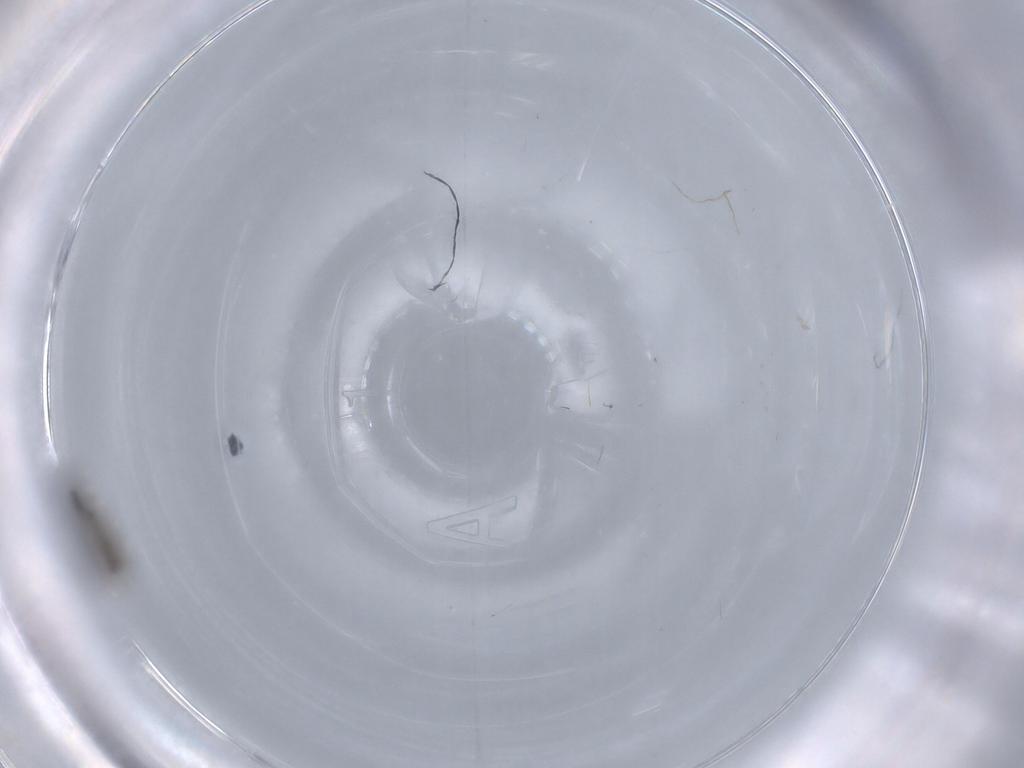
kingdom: Animalia
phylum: Arthropoda
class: Insecta
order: Diptera
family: Sciaridae
